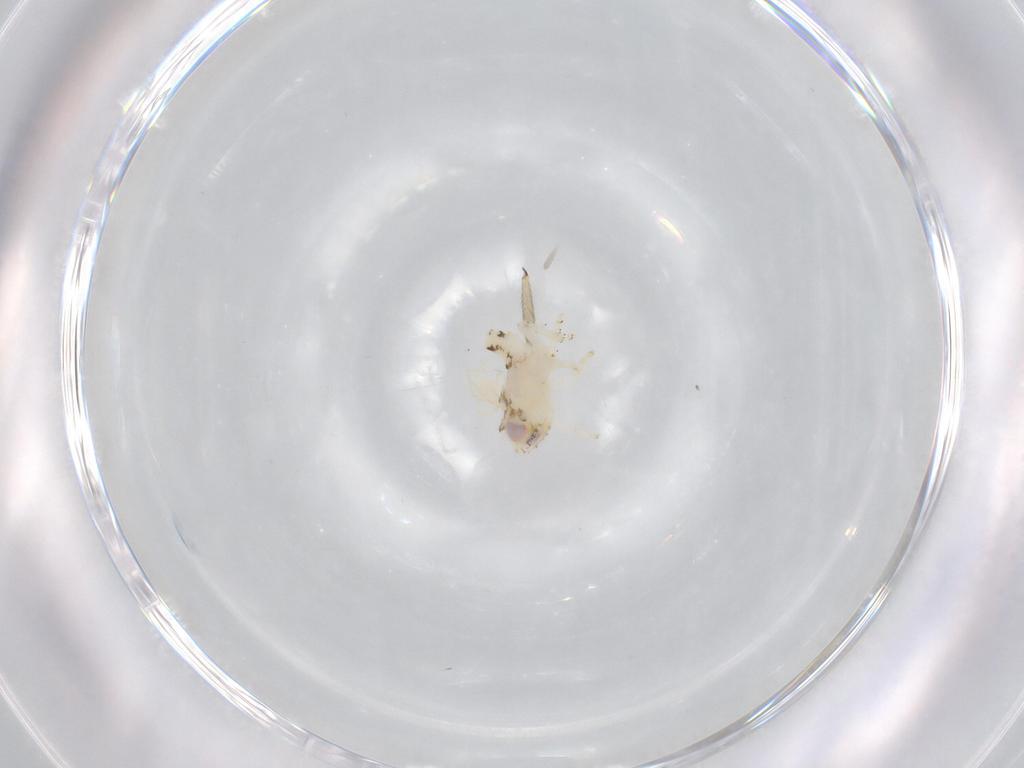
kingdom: Animalia
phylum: Arthropoda
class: Insecta
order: Hemiptera
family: Nogodinidae
